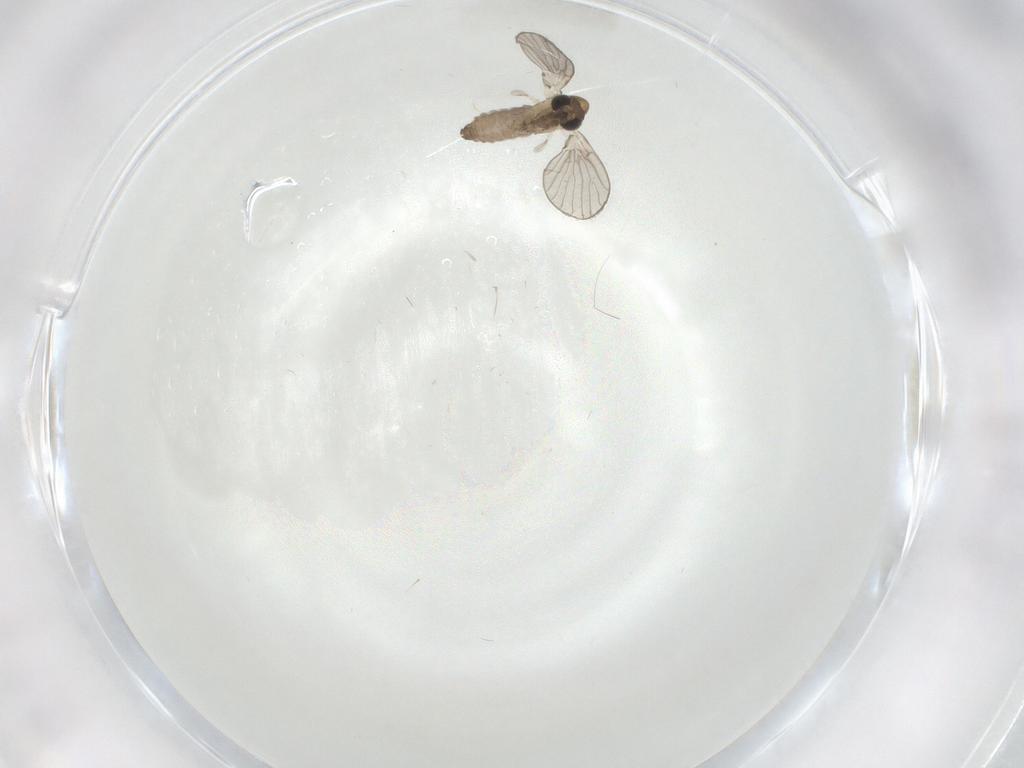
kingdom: Animalia
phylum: Arthropoda
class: Insecta
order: Diptera
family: Psychodidae
